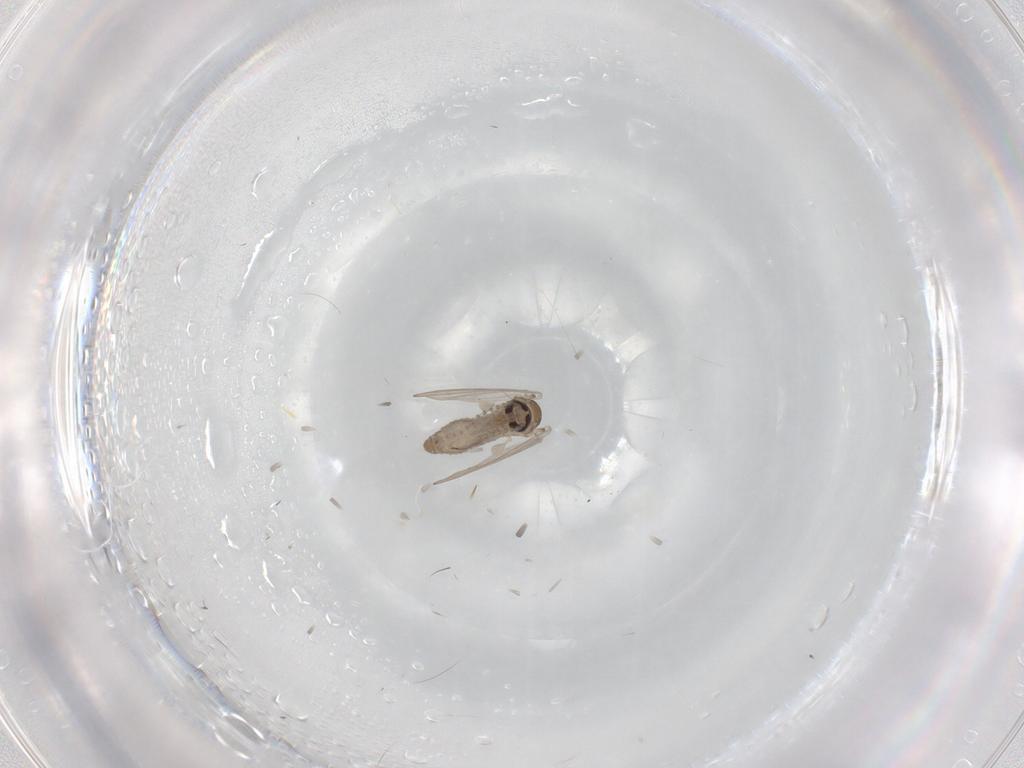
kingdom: Animalia
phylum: Arthropoda
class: Insecta
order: Diptera
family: Psychodidae
